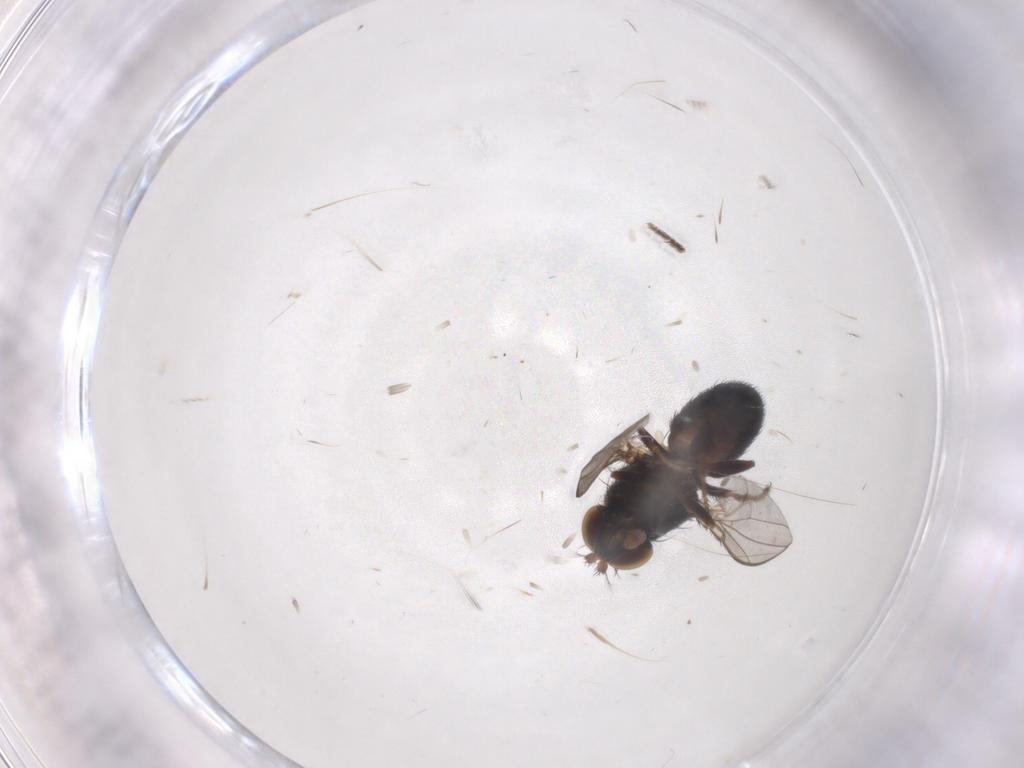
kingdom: Animalia
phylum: Arthropoda
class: Insecta
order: Diptera
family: Ephydridae
